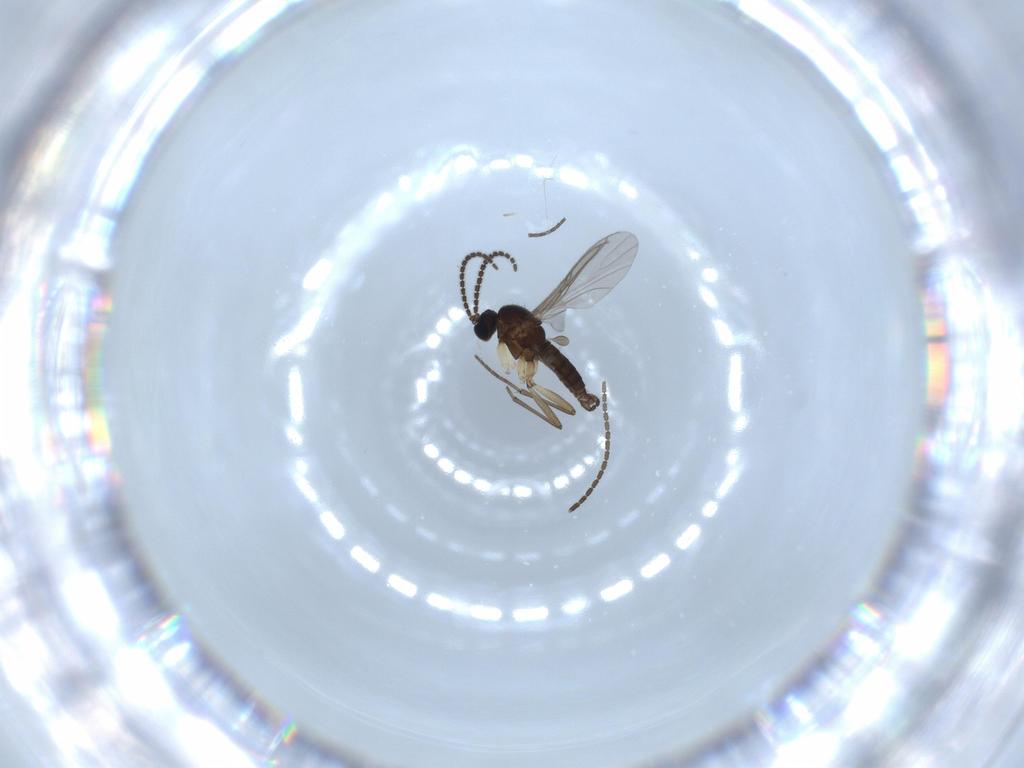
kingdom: Animalia
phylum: Arthropoda
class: Insecta
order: Diptera
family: Sciaridae
